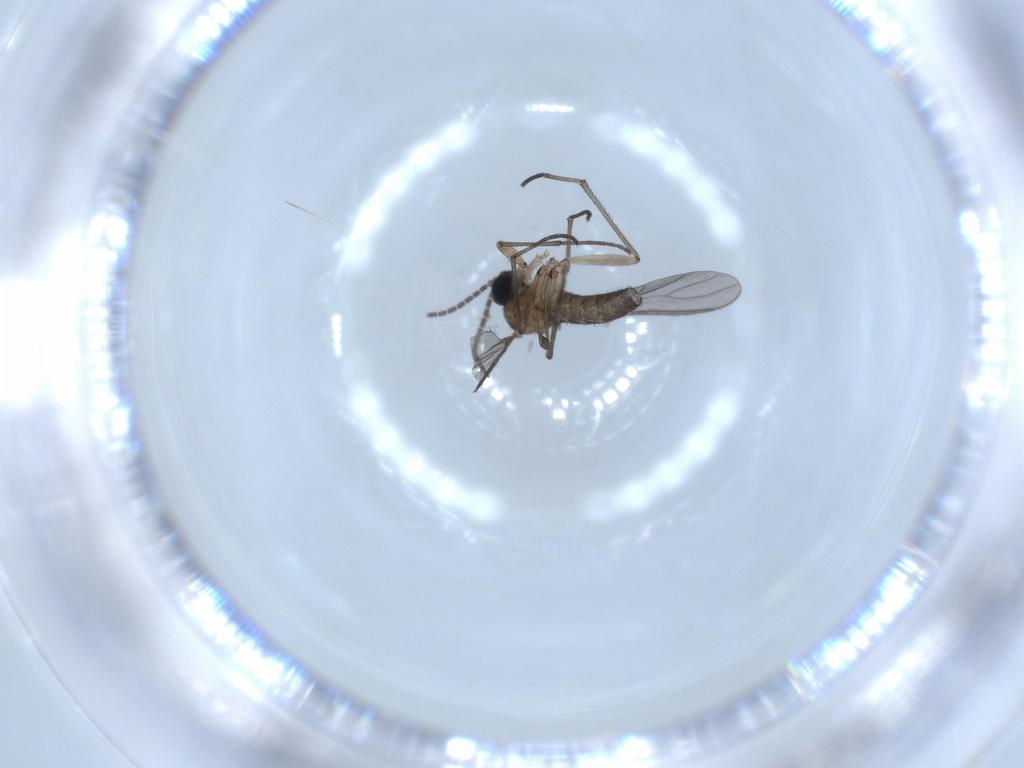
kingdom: Animalia
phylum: Arthropoda
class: Insecta
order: Diptera
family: Sciaridae
